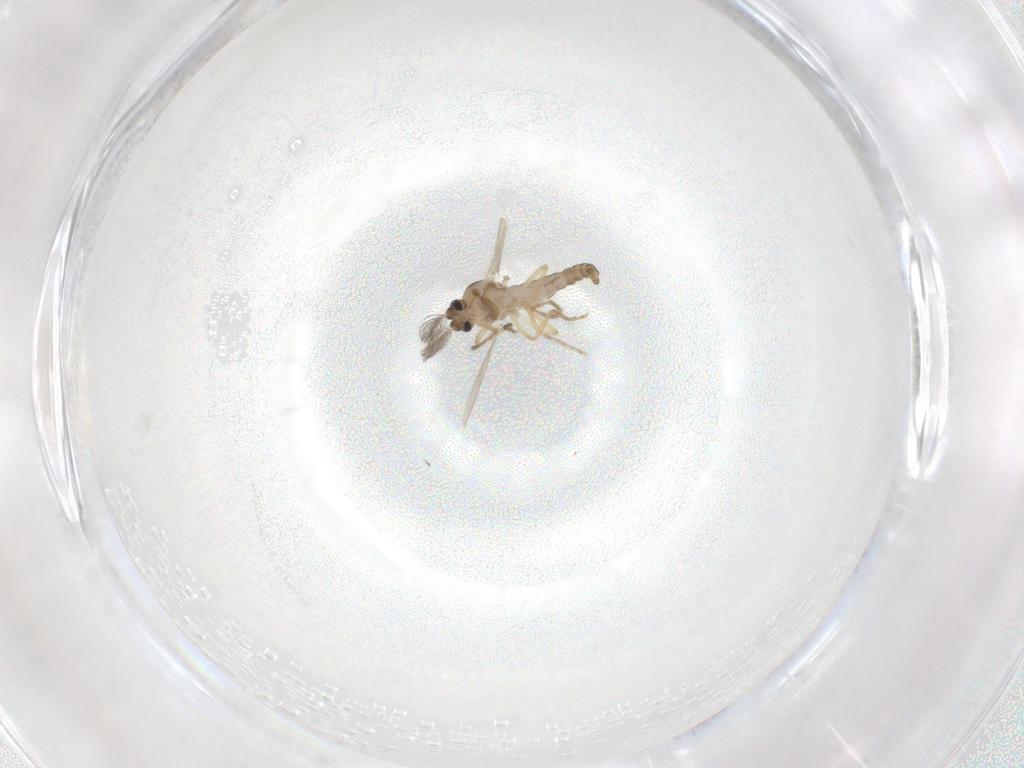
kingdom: Animalia
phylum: Arthropoda
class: Insecta
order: Diptera
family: Ceratopogonidae
